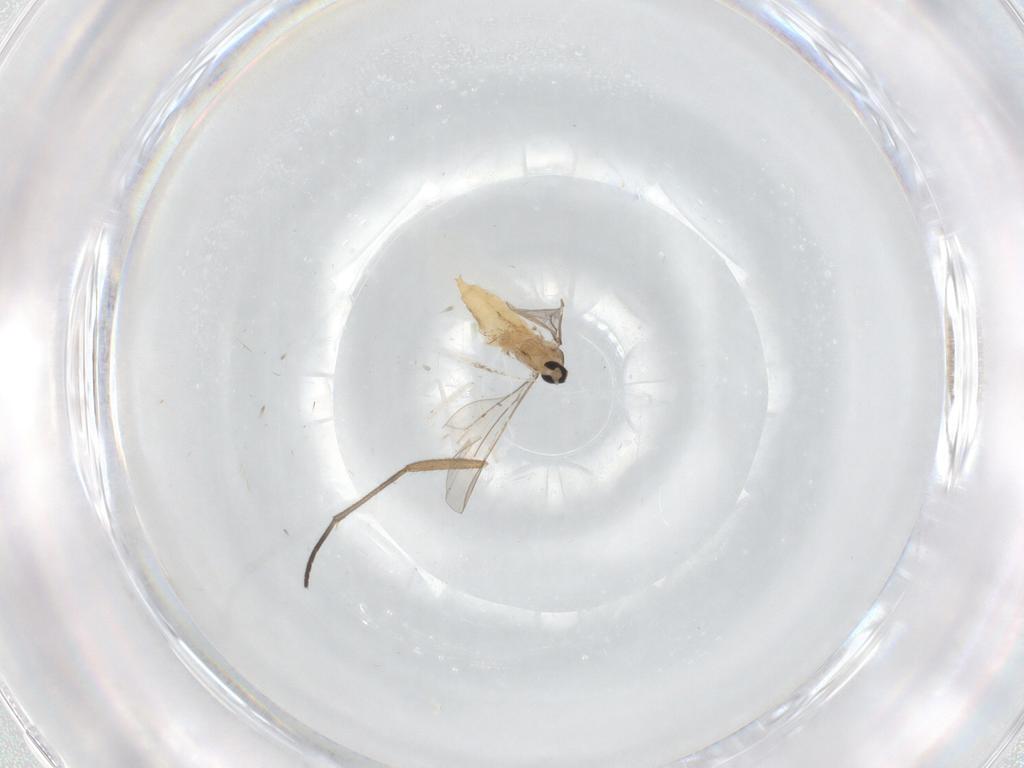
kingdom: Animalia
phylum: Arthropoda
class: Insecta
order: Diptera
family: Cecidomyiidae
